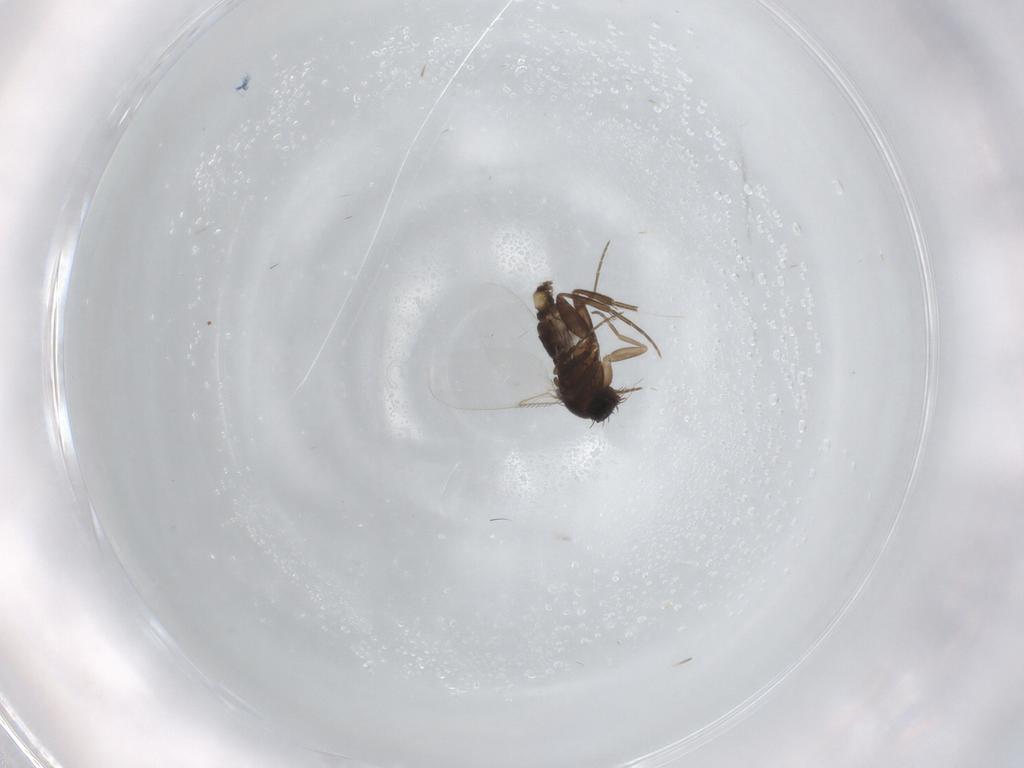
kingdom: Animalia
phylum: Arthropoda
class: Insecta
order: Diptera
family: Phoridae
